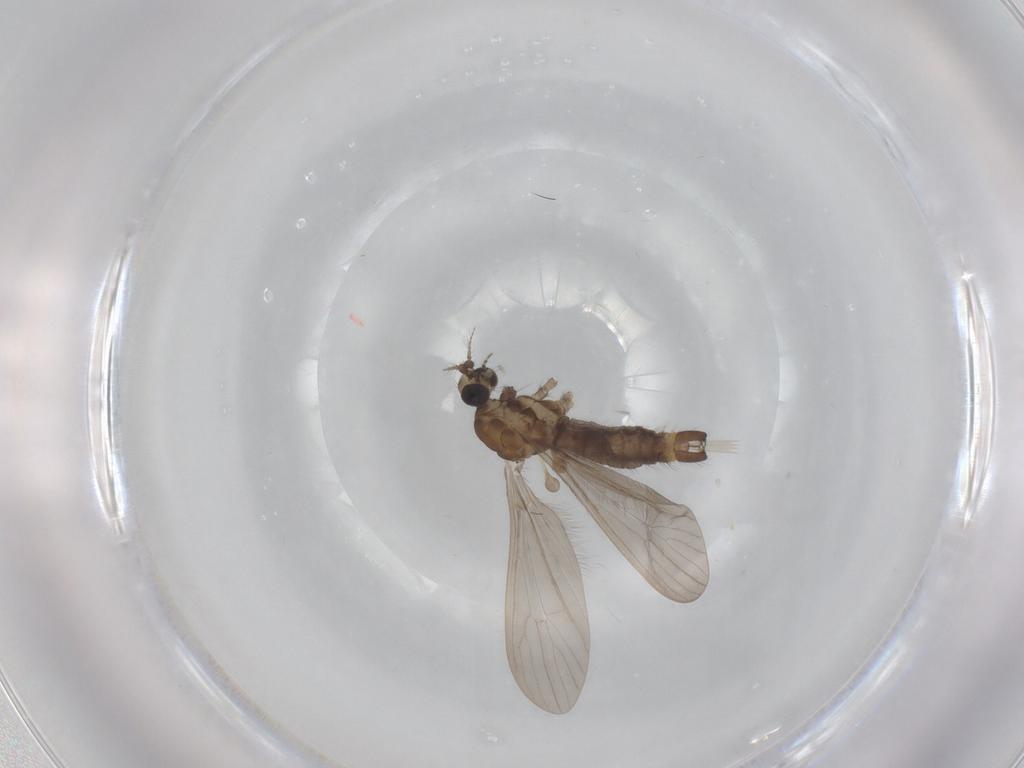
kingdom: Animalia
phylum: Arthropoda
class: Insecta
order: Diptera
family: Limoniidae
